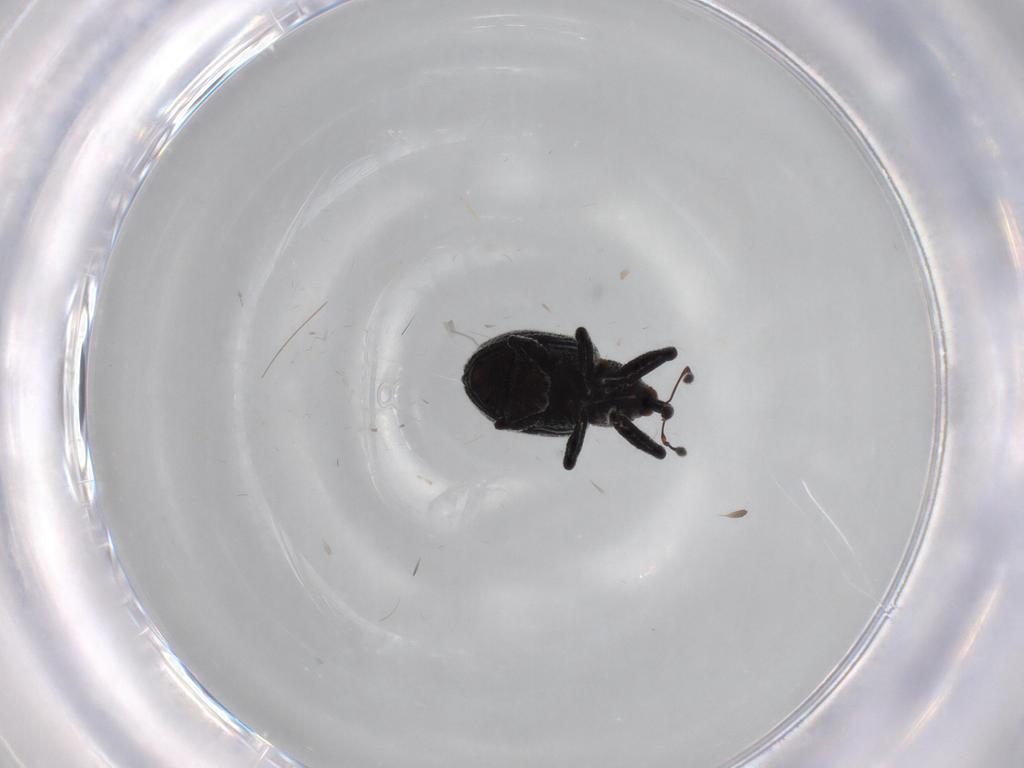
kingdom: Animalia
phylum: Arthropoda
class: Insecta
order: Coleoptera
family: Curculionidae
